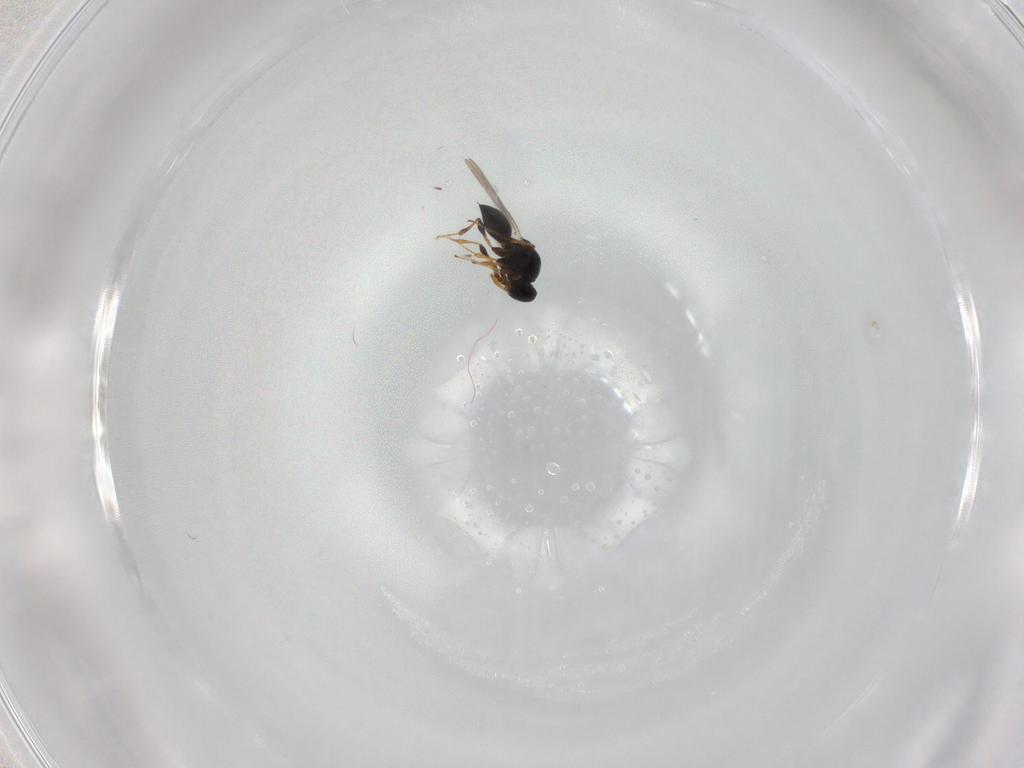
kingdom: Animalia
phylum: Arthropoda
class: Insecta
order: Hymenoptera
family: Platygastridae
